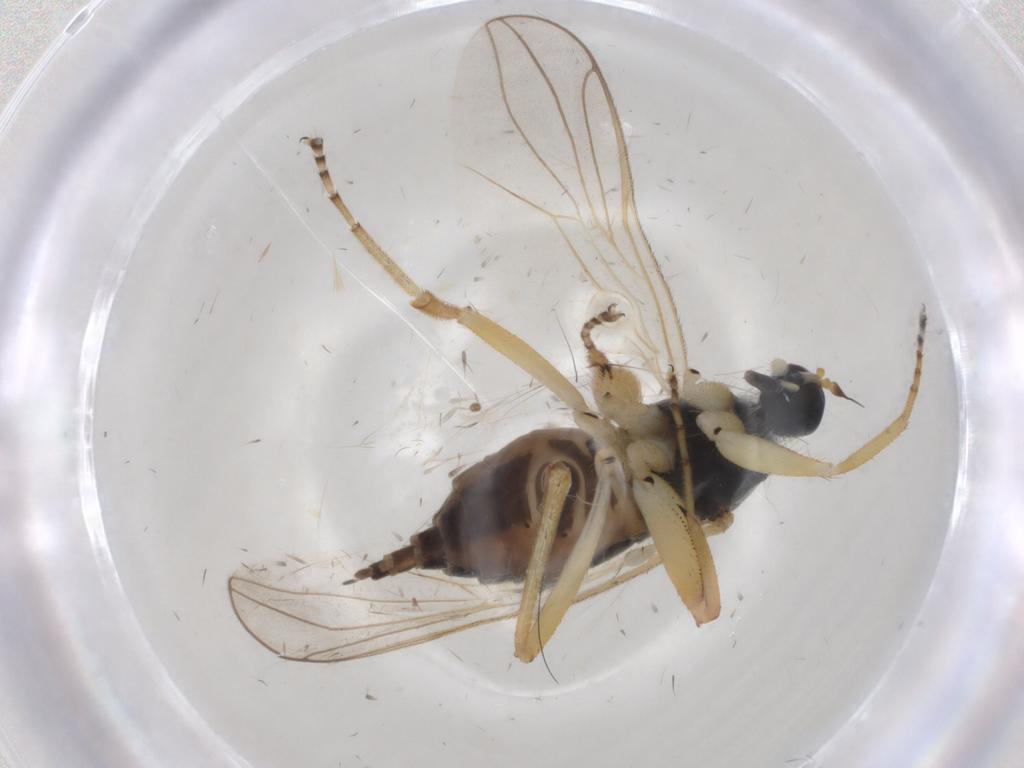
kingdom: Animalia
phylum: Arthropoda
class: Insecta
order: Diptera
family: Hybotidae
